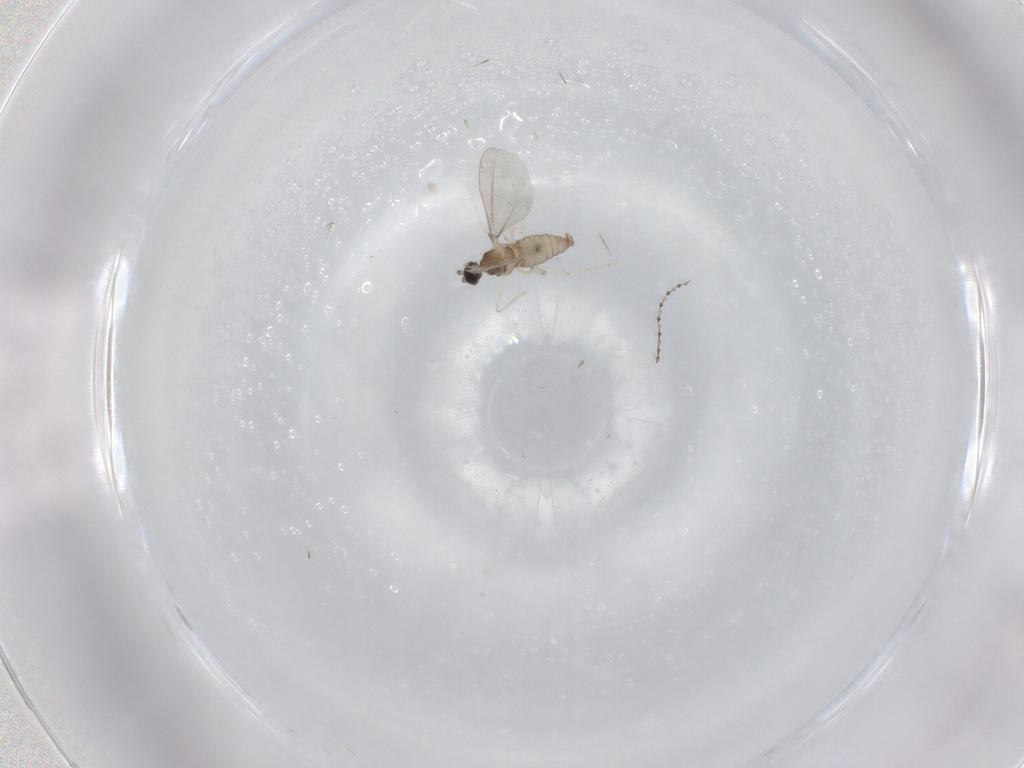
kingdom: Animalia
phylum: Arthropoda
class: Insecta
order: Diptera
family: Cecidomyiidae
